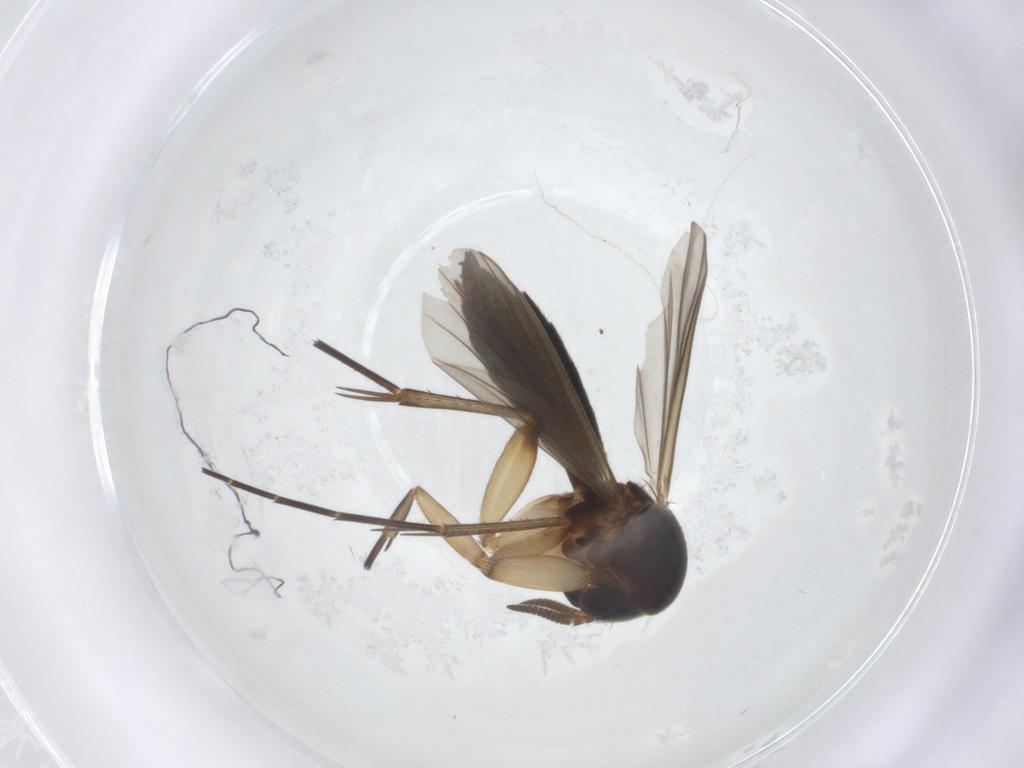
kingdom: Animalia
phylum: Arthropoda
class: Insecta
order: Diptera
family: Mycetophilidae
